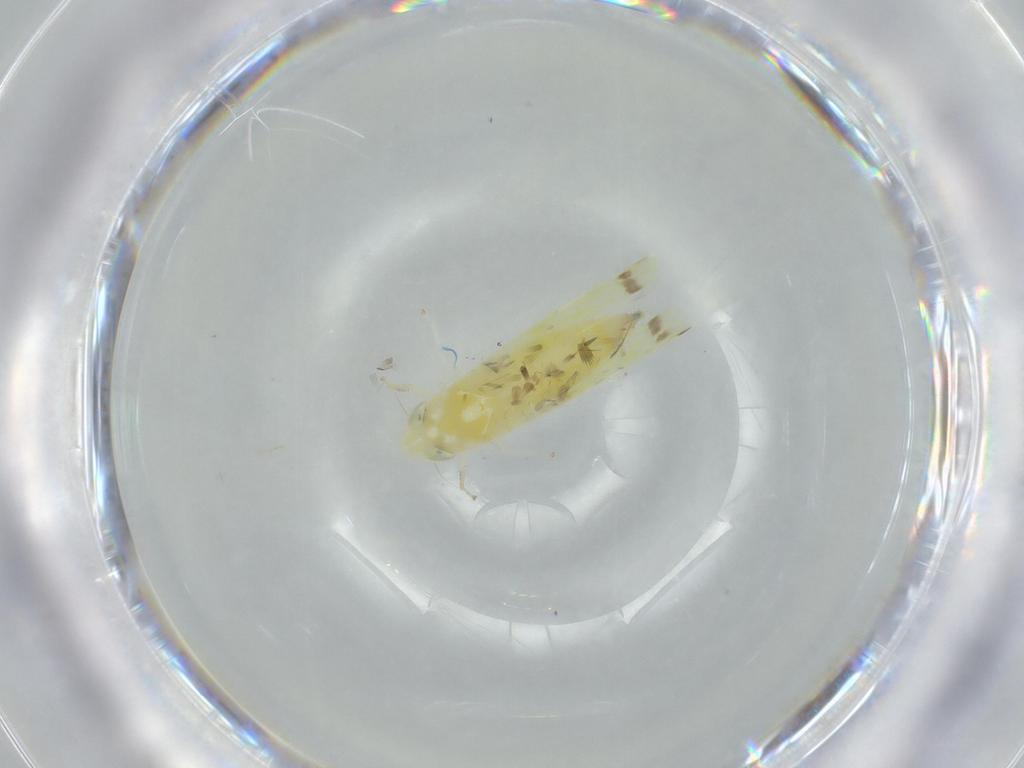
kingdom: Animalia
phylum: Arthropoda
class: Insecta
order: Hemiptera
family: Cicadellidae
